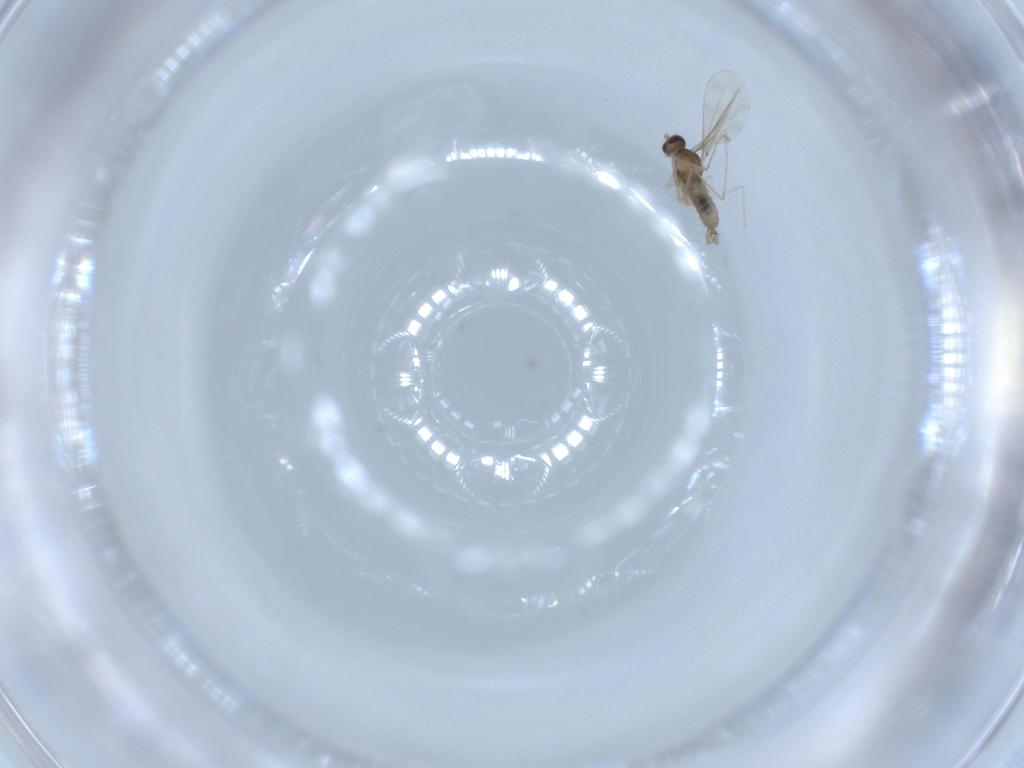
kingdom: Animalia
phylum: Arthropoda
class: Insecta
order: Diptera
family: Cecidomyiidae
